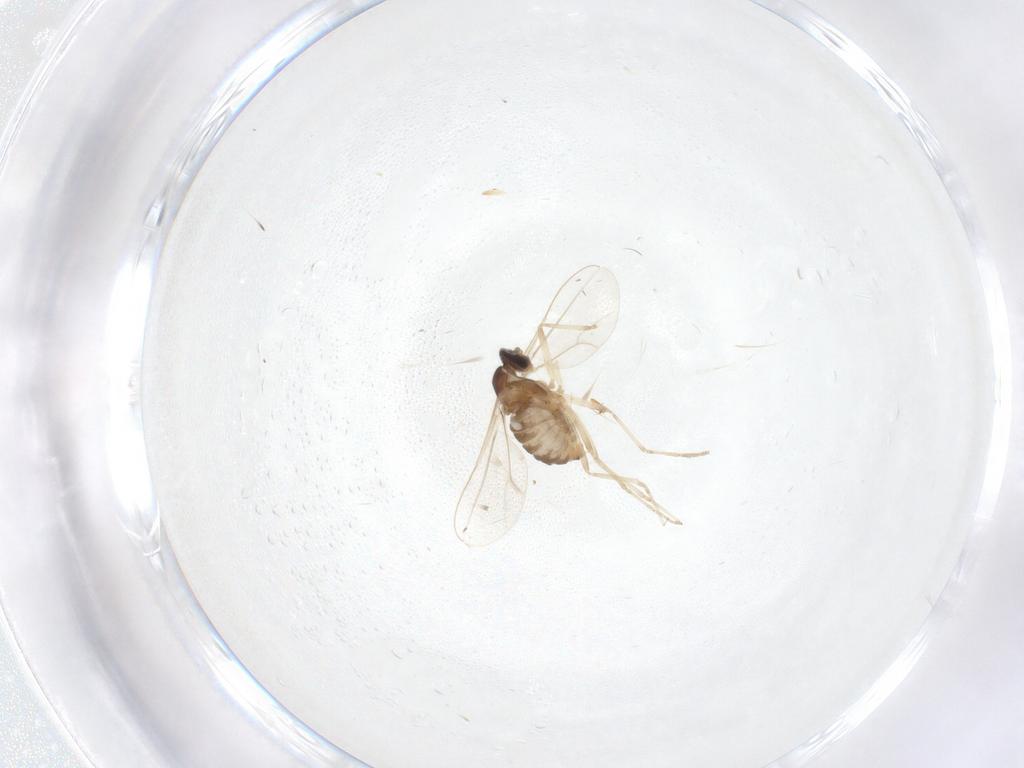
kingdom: Animalia
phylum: Arthropoda
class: Insecta
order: Diptera
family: Cecidomyiidae
